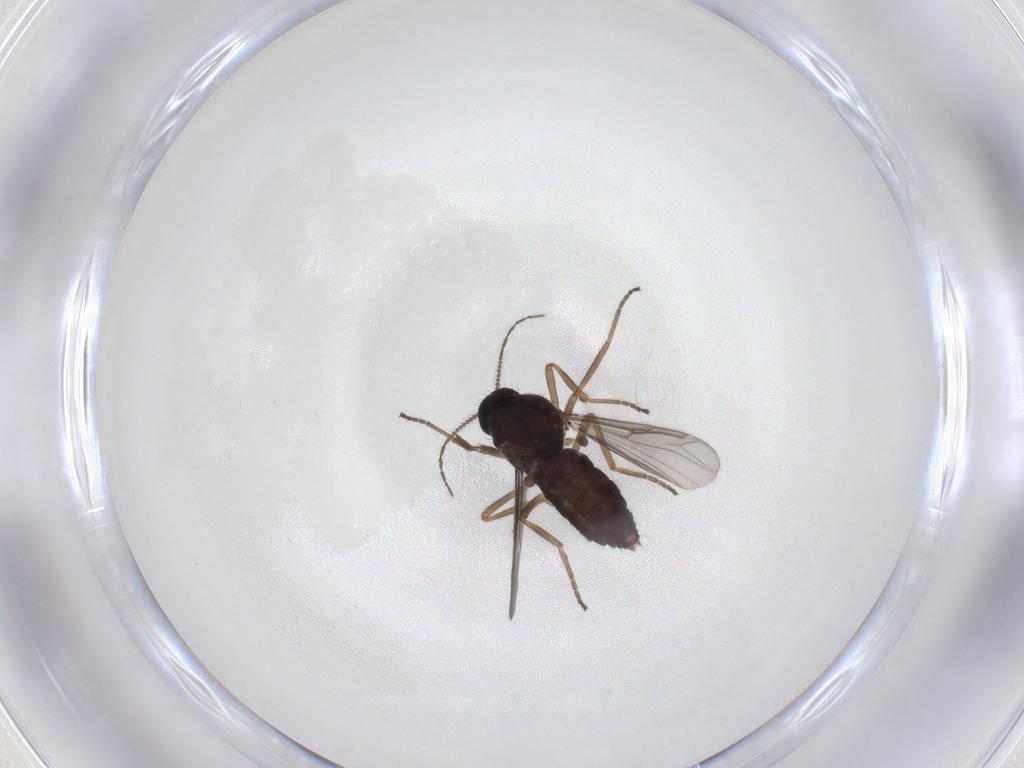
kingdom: Animalia
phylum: Arthropoda
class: Insecta
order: Diptera
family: Ceratopogonidae
